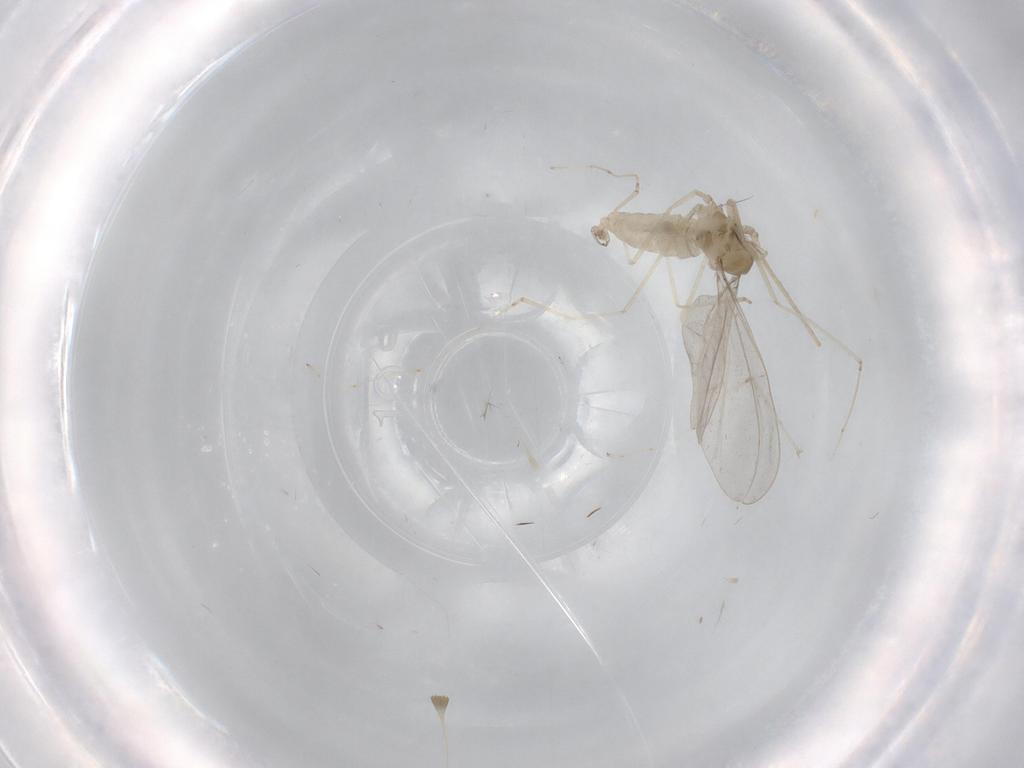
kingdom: Animalia
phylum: Arthropoda
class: Insecta
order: Diptera
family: Cecidomyiidae
